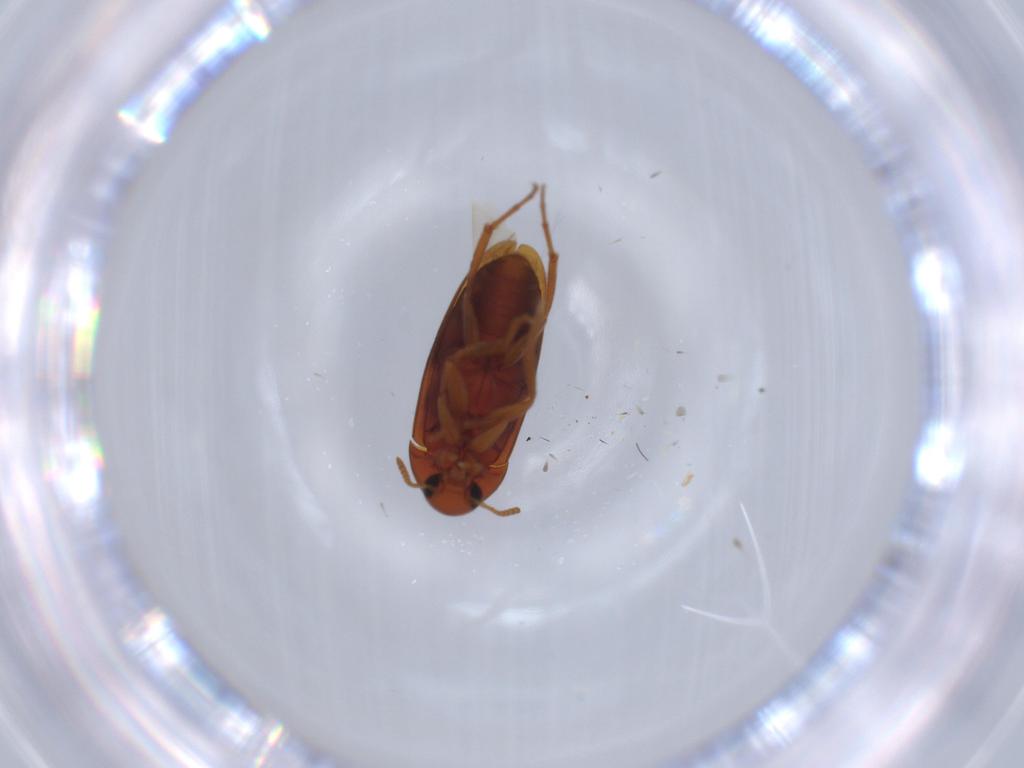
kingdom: Animalia
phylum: Arthropoda
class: Insecta
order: Coleoptera
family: Scraptiidae
